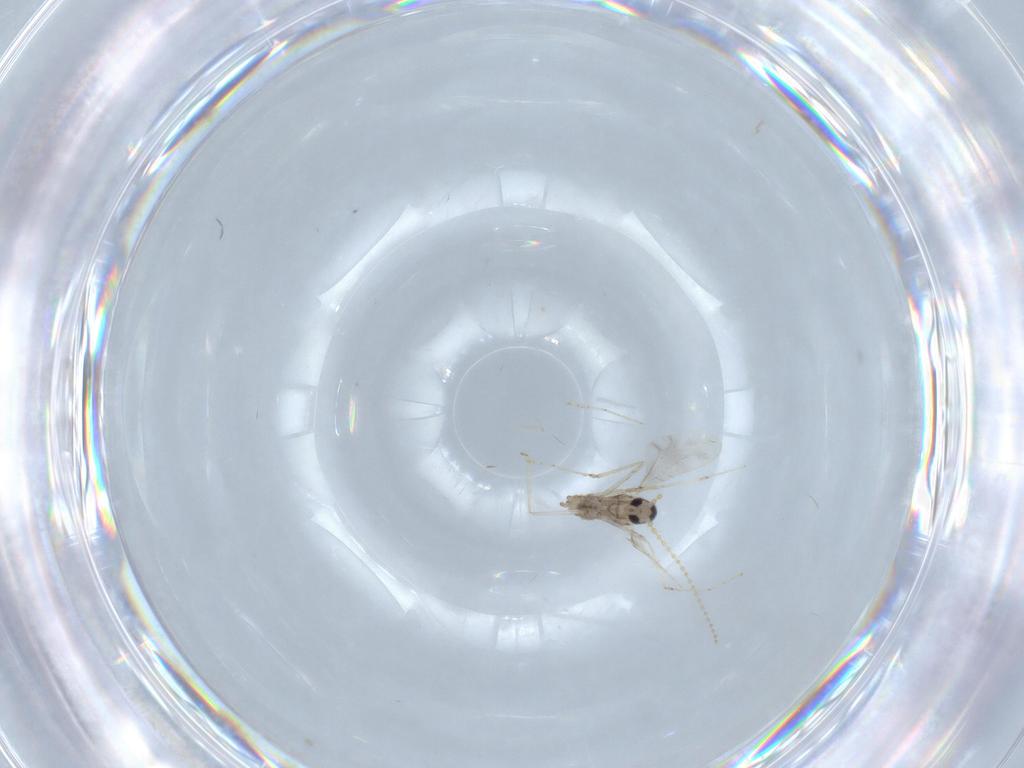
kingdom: Animalia
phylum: Arthropoda
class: Insecta
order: Diptera
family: Cecidomyiidae
